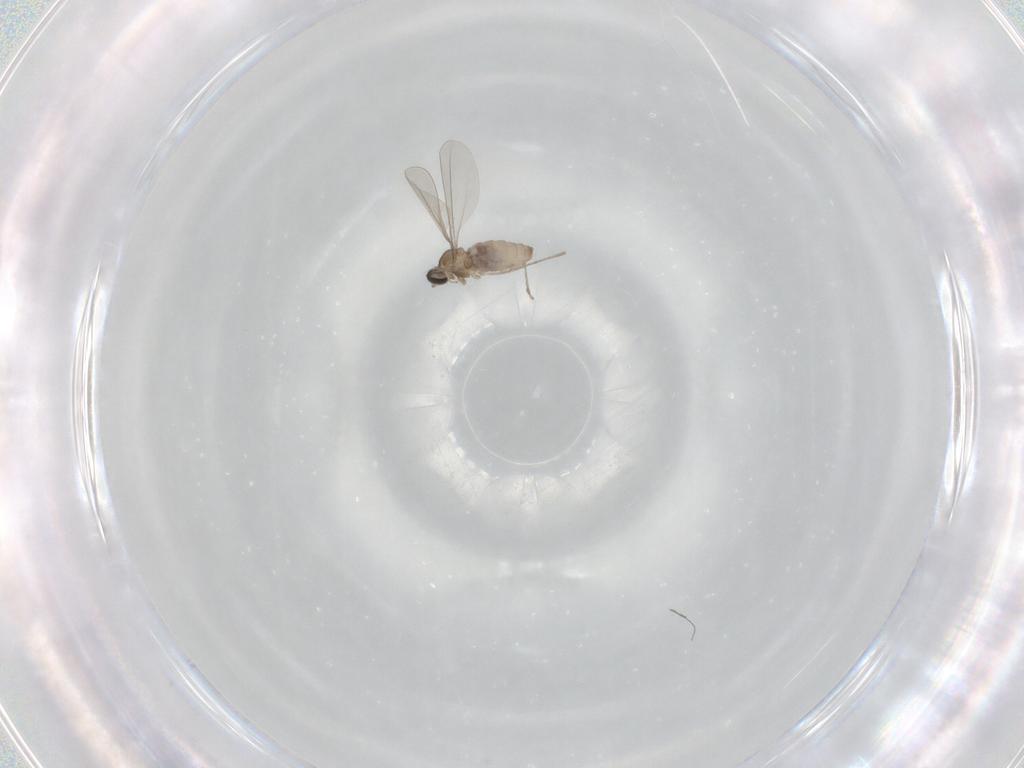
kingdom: Animalia
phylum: Arthropoda
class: Insecta
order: Diptera
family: Cecidomyiidae
